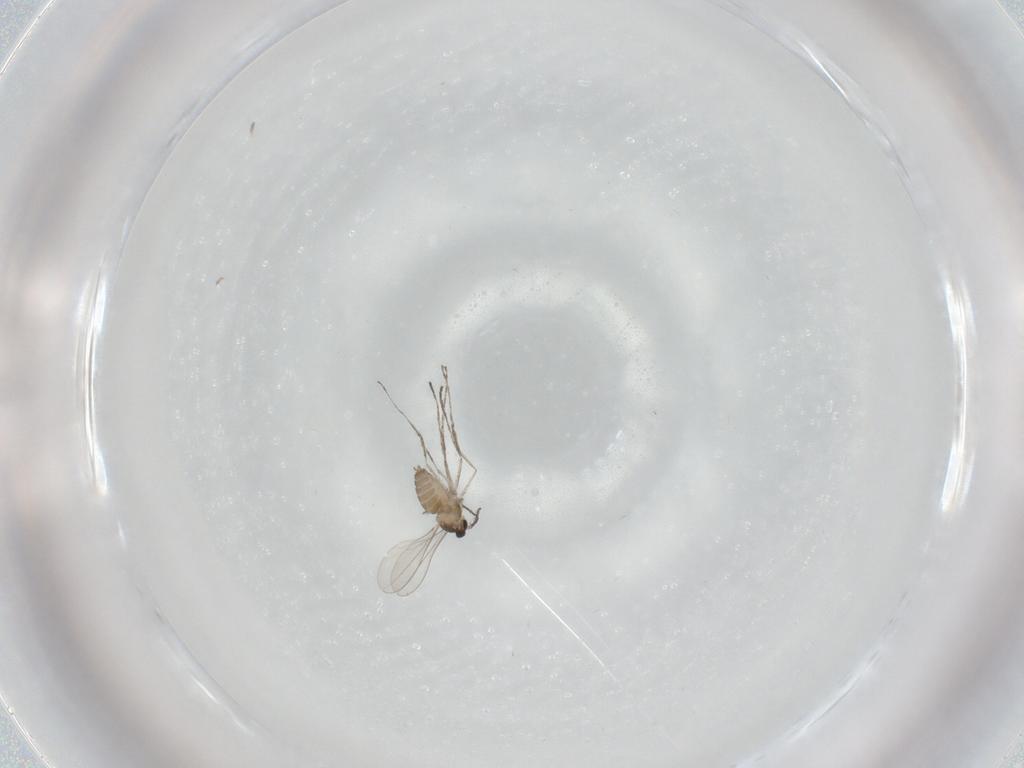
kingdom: Animalia
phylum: Arthropoda
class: Insecta
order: Diptera
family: Cecidomyiidae
